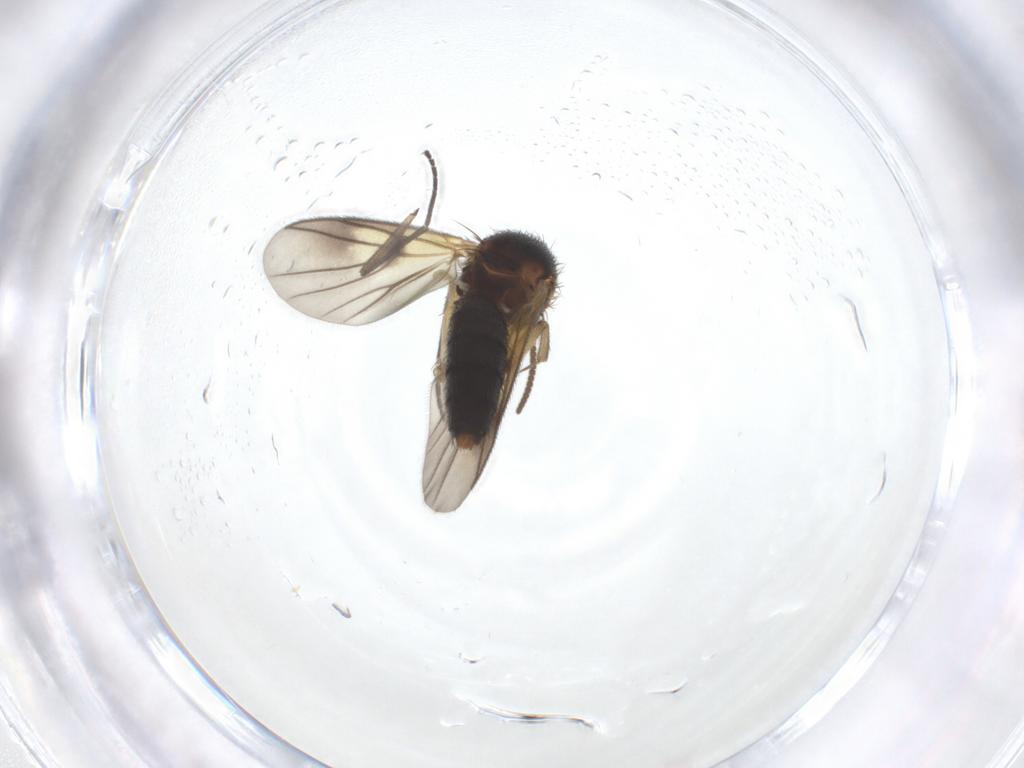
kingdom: Animalia
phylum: Arthropoda
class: Insecta
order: Diptera
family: Mycetophilidae
